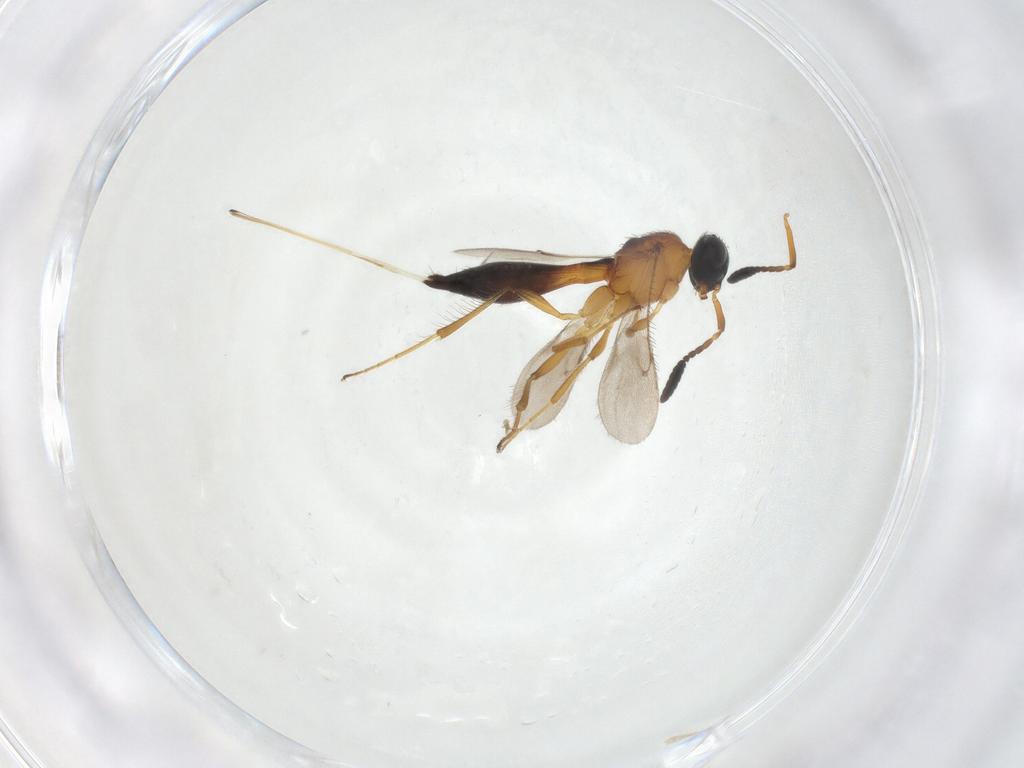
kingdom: Animalia
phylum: Arthropoda
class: Insecta
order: Hymenoptera
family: Scelionidae
